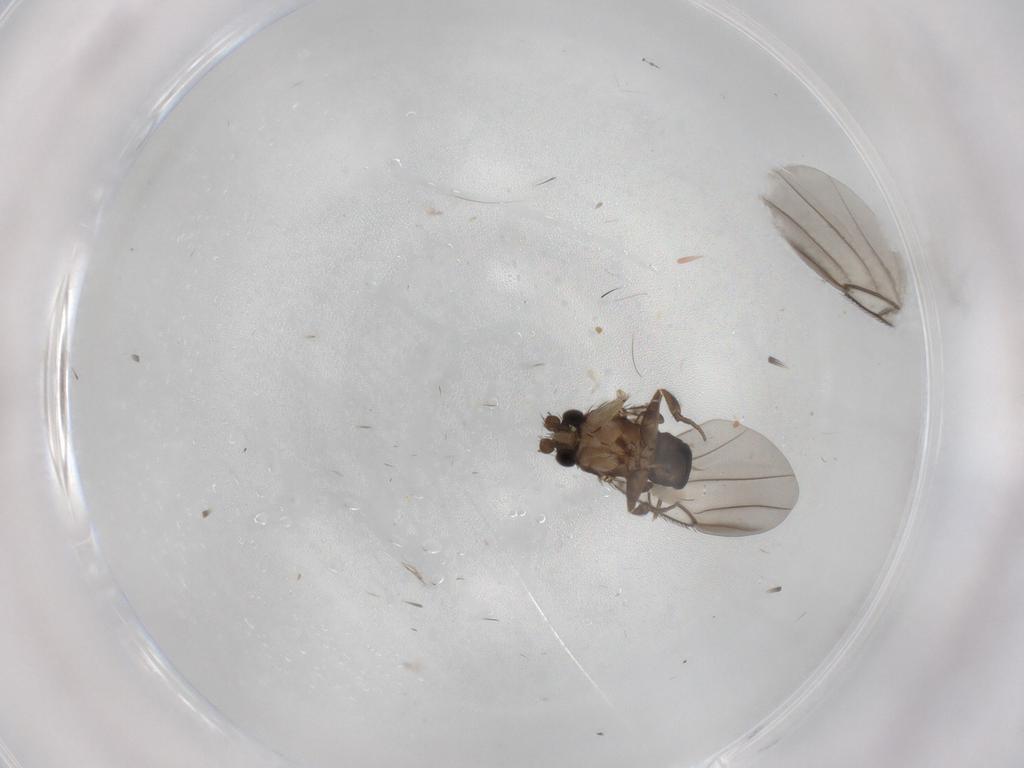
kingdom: Animalia
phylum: Arthropoda
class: Insecta
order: Diptera
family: Phoridae
